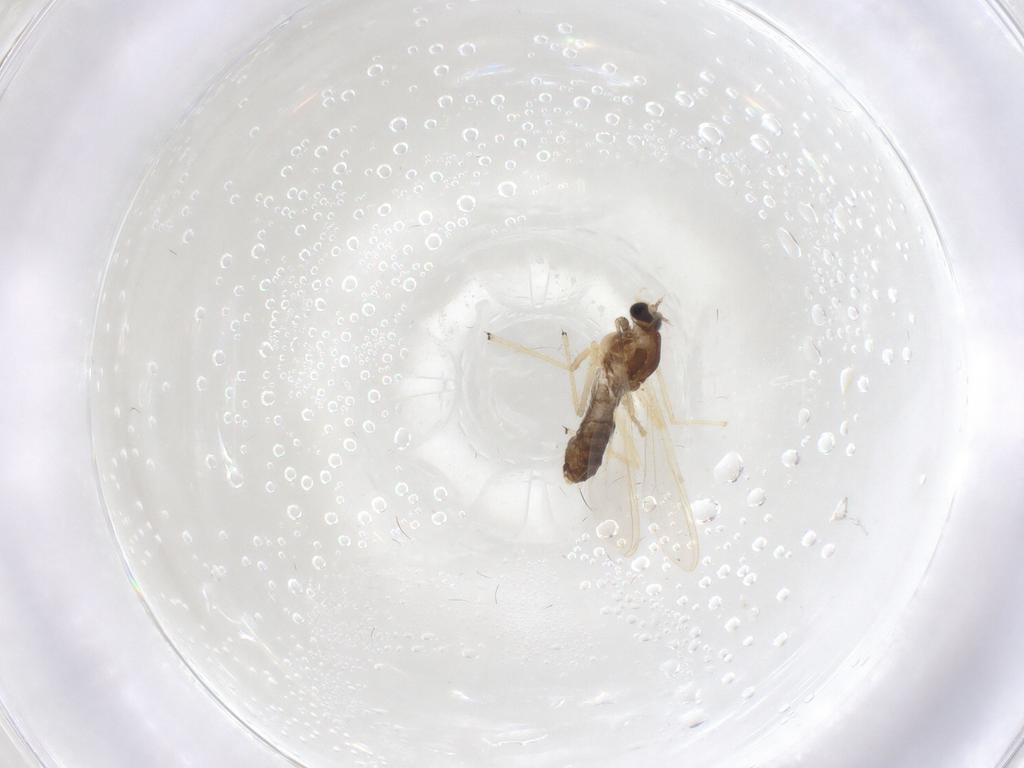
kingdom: Animalia
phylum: Arthropoda
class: Insecta
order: Diptera
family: Chironomidae
